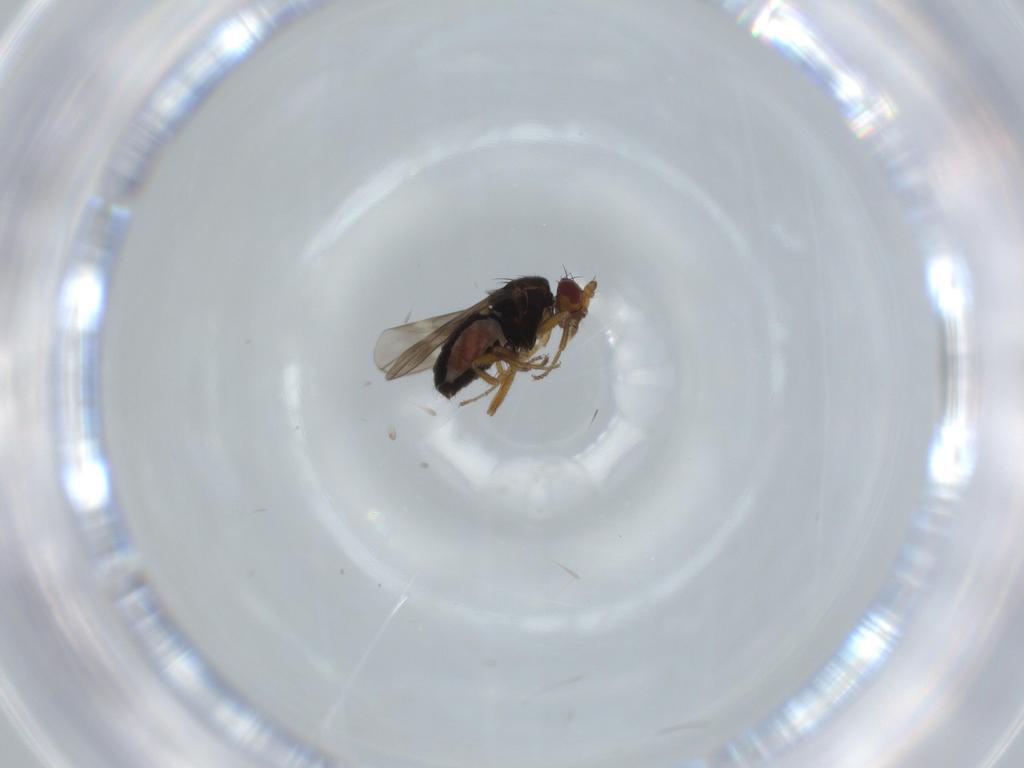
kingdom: Animalia
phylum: Arthropoda
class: Insecta
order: Diptera
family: Sphaeroceridae
